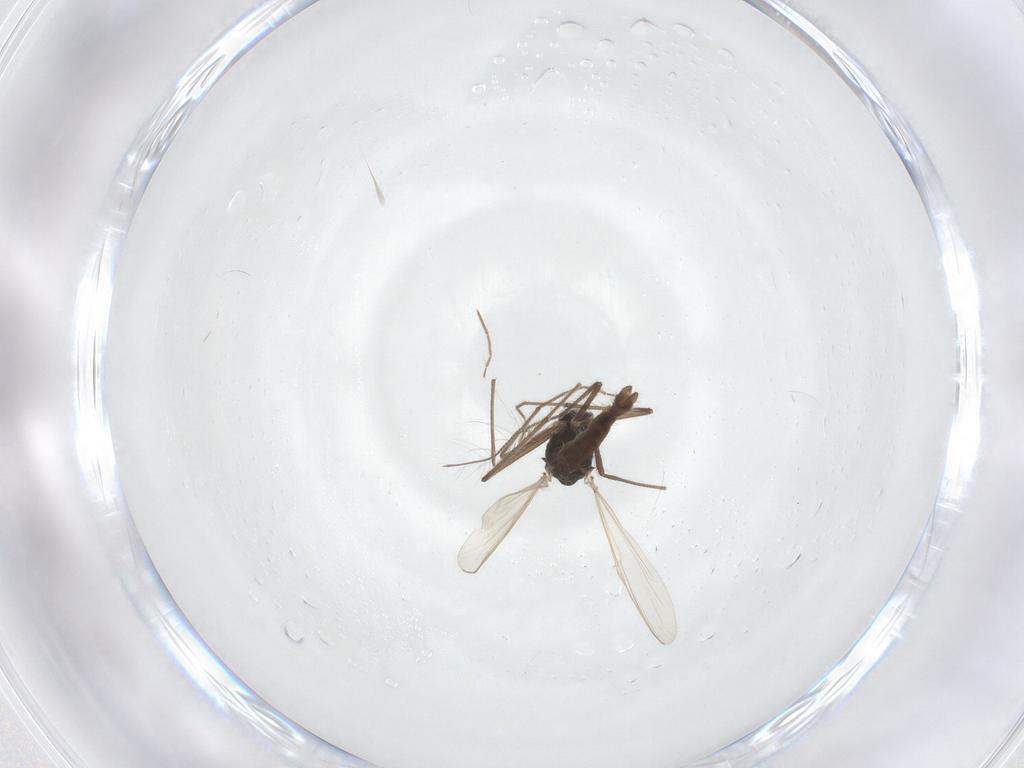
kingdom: Animalia
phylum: Arthropoda
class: Insecta
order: Diptera
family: Chironomidae
